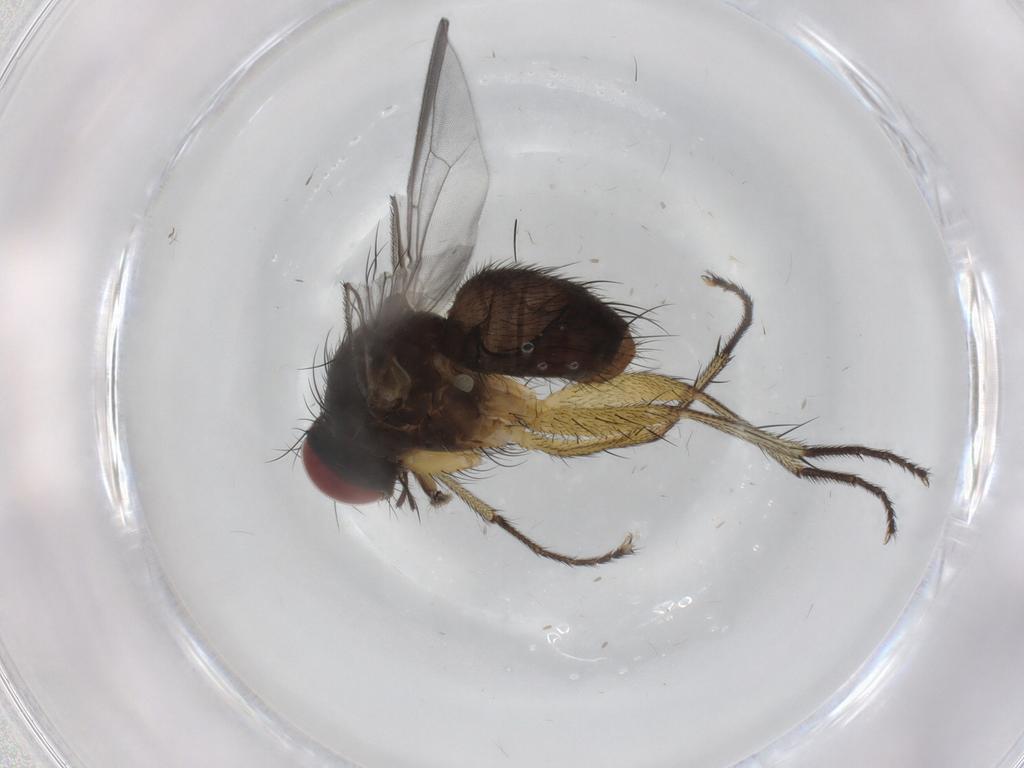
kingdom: Animalia
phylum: Arthropoda
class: Insecta
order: Diptera
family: Muscidae
